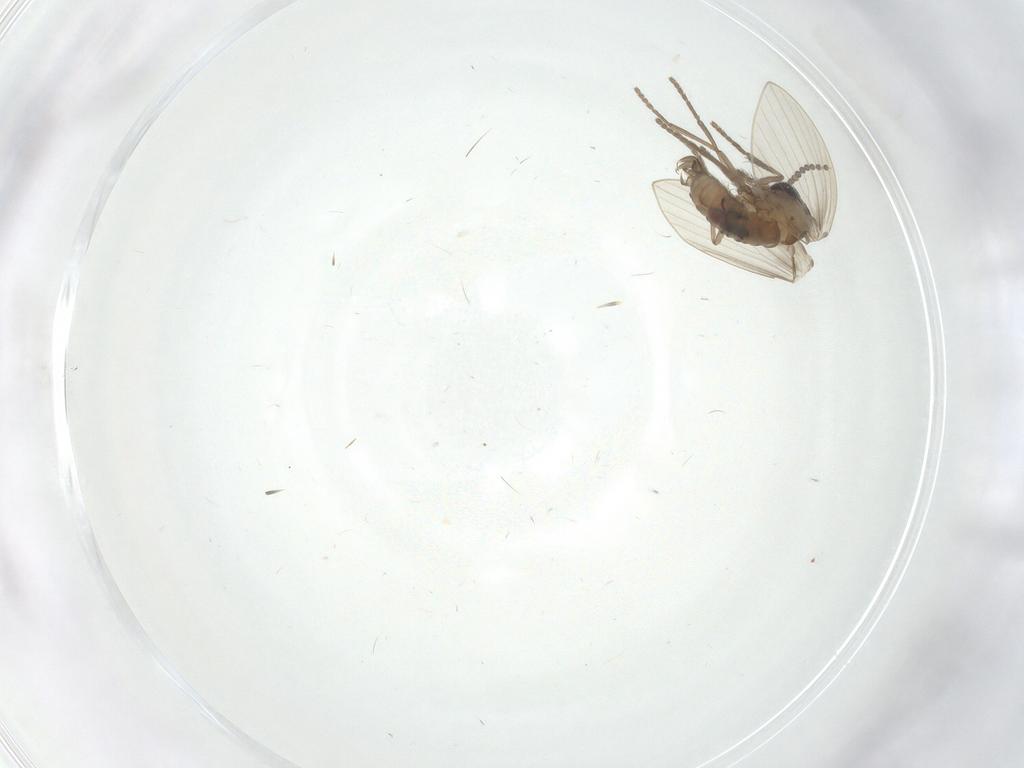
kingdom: Animalia
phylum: Arthropoda
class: Insecta
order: Diptera
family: Psychodidae
